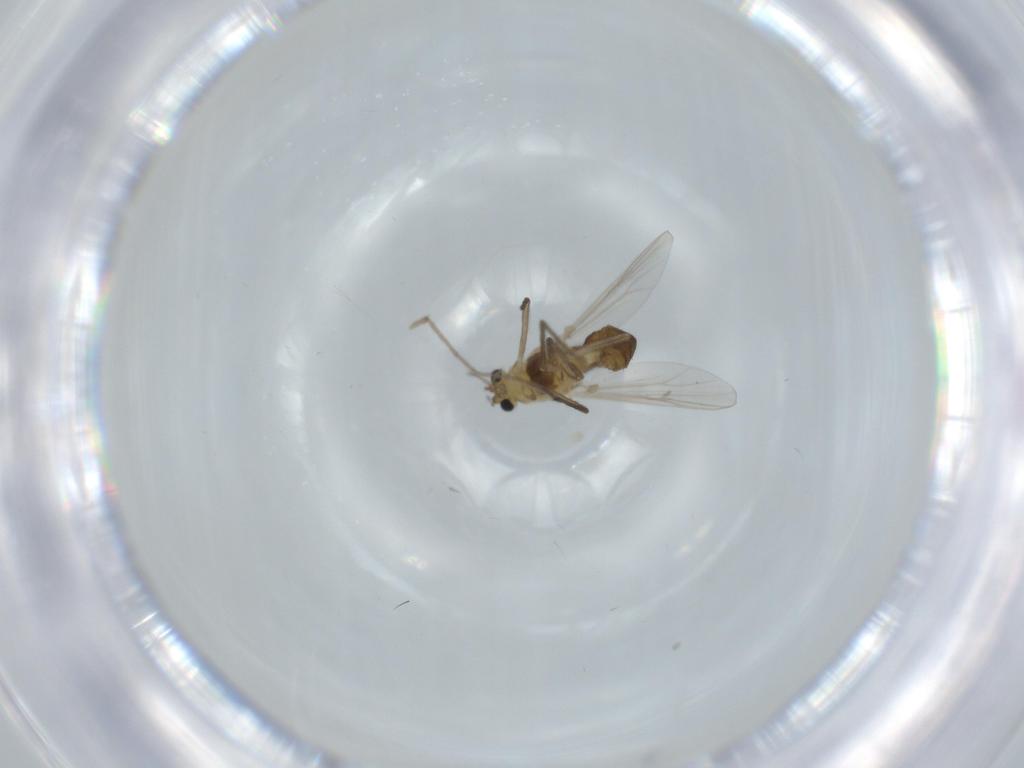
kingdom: Animalia
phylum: Arthropoda
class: Insecta
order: Diptera
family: Chironomidae
